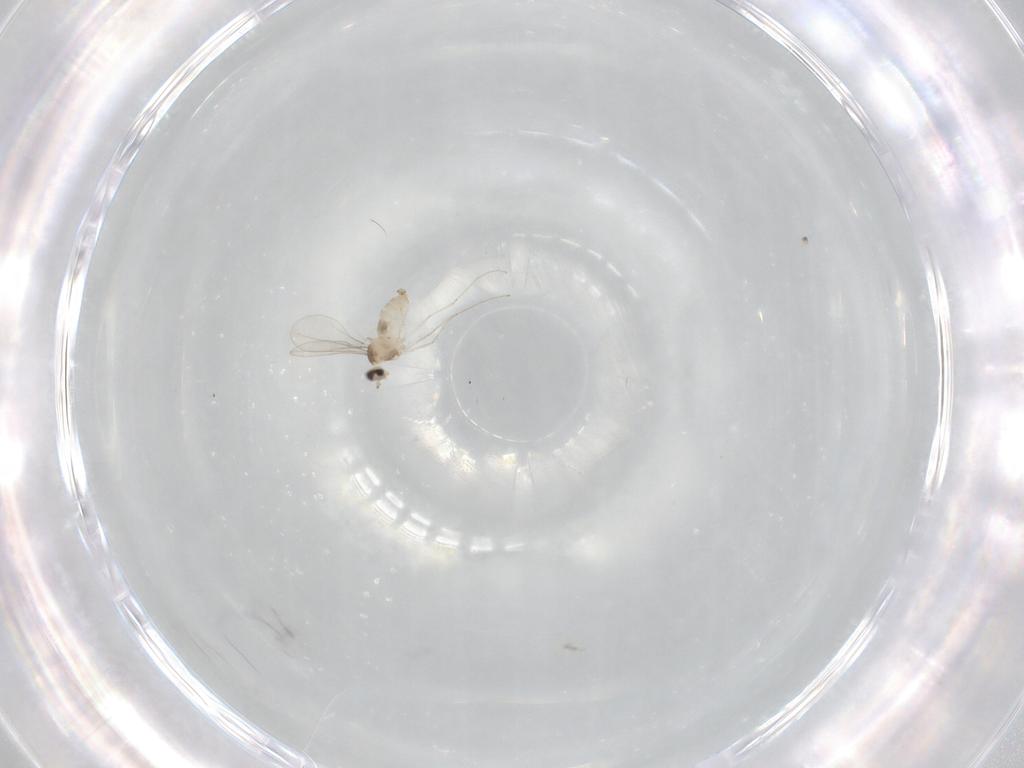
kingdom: Animalia
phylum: Arthropoda
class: Insecta
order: Diptera
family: Cecidomyiidae
